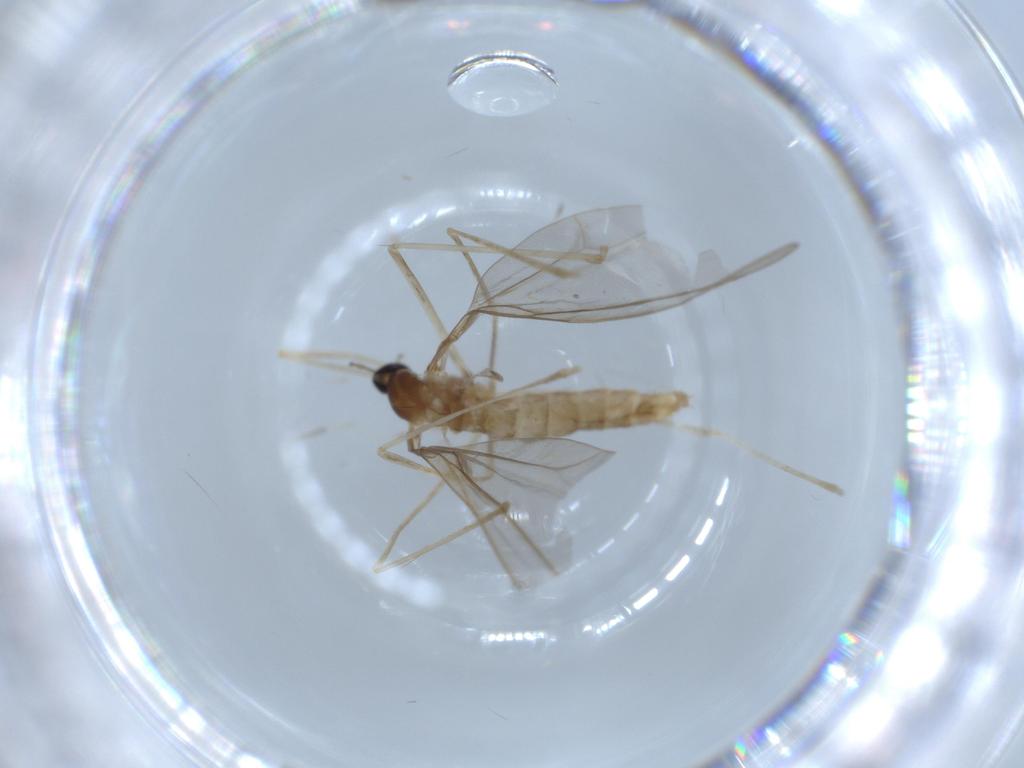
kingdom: Animalia
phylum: Arthropoda
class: Insecta
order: Diptera
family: Cecidomyiidae
